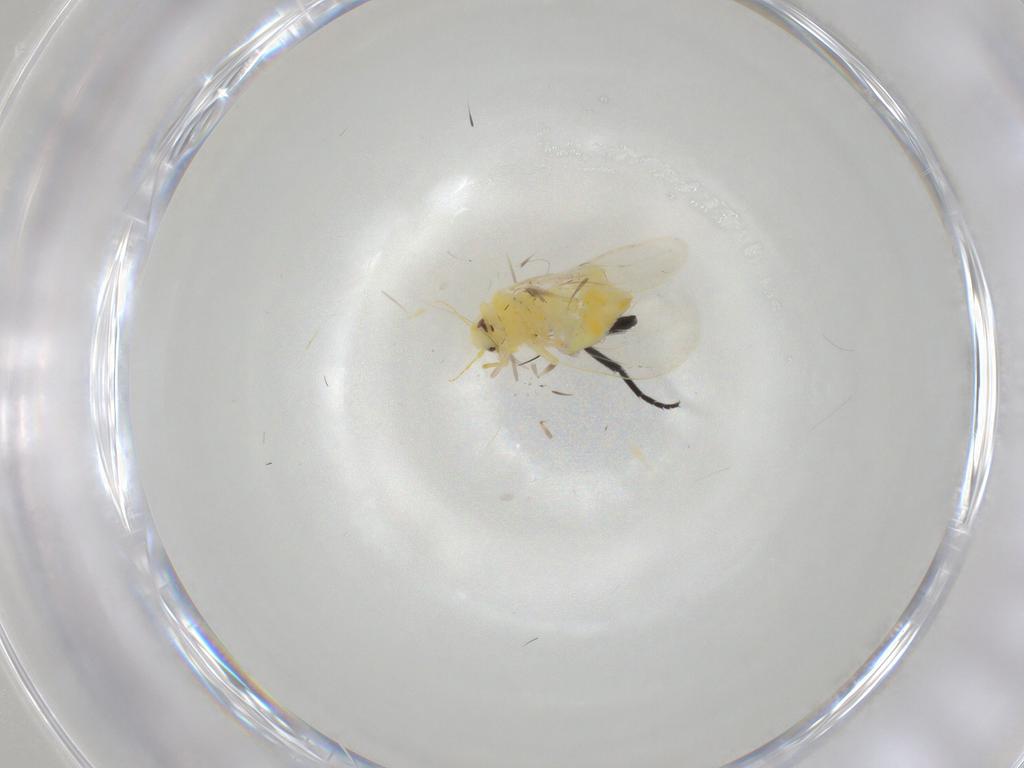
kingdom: Animalia
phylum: Arthropoda
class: Insecta
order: Hemiptera
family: Aleyrodidae
